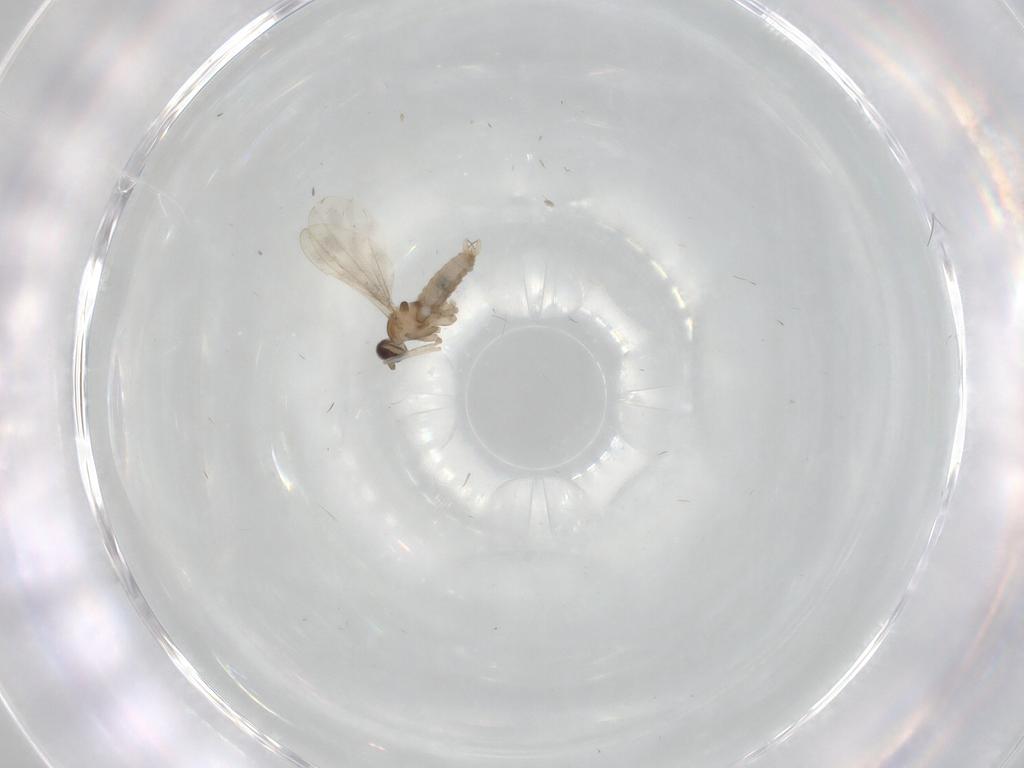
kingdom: Animalia
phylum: Arthropoda
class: Insecta
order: Diptera
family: Cecidomyiidae
